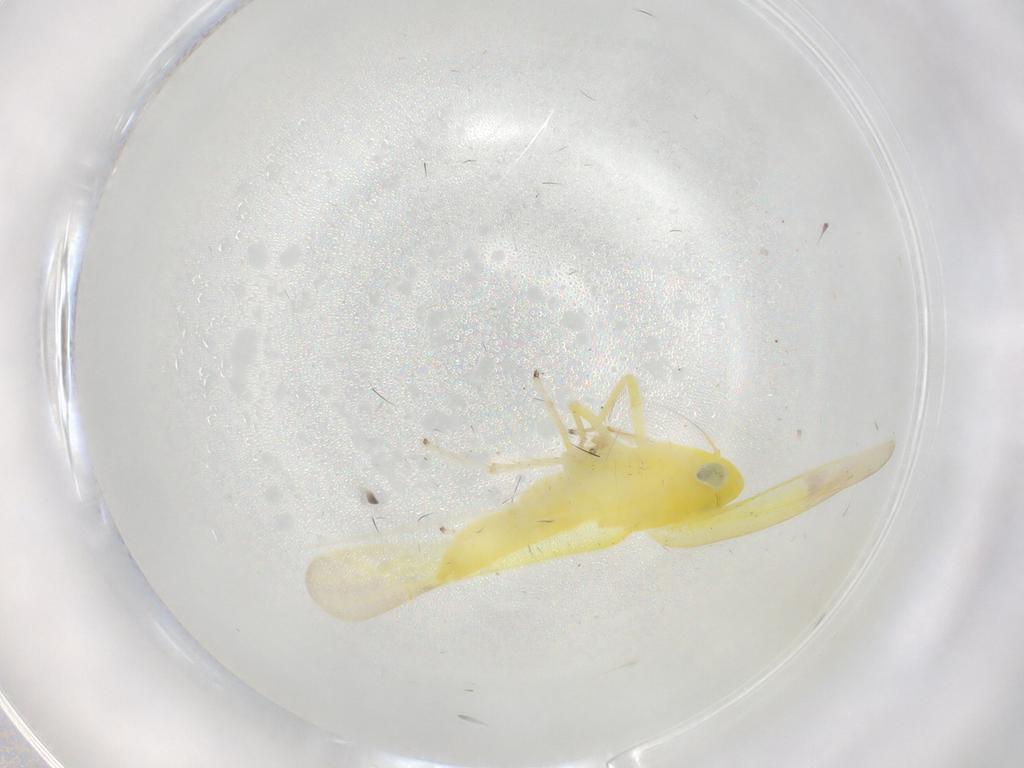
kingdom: Animalia
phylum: Arthropoda
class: Insecta
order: Hemiptera
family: Cicadellidae
